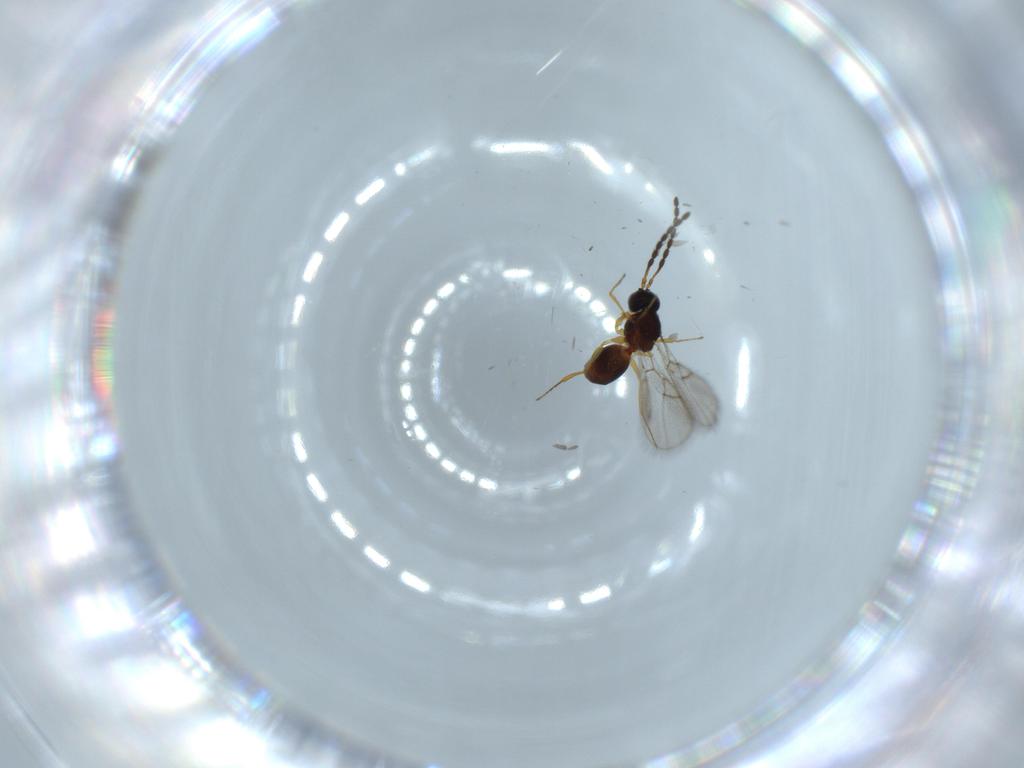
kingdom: Animalia
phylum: Arthropoda
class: Insecta
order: Hymenoptera
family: Figitidae
